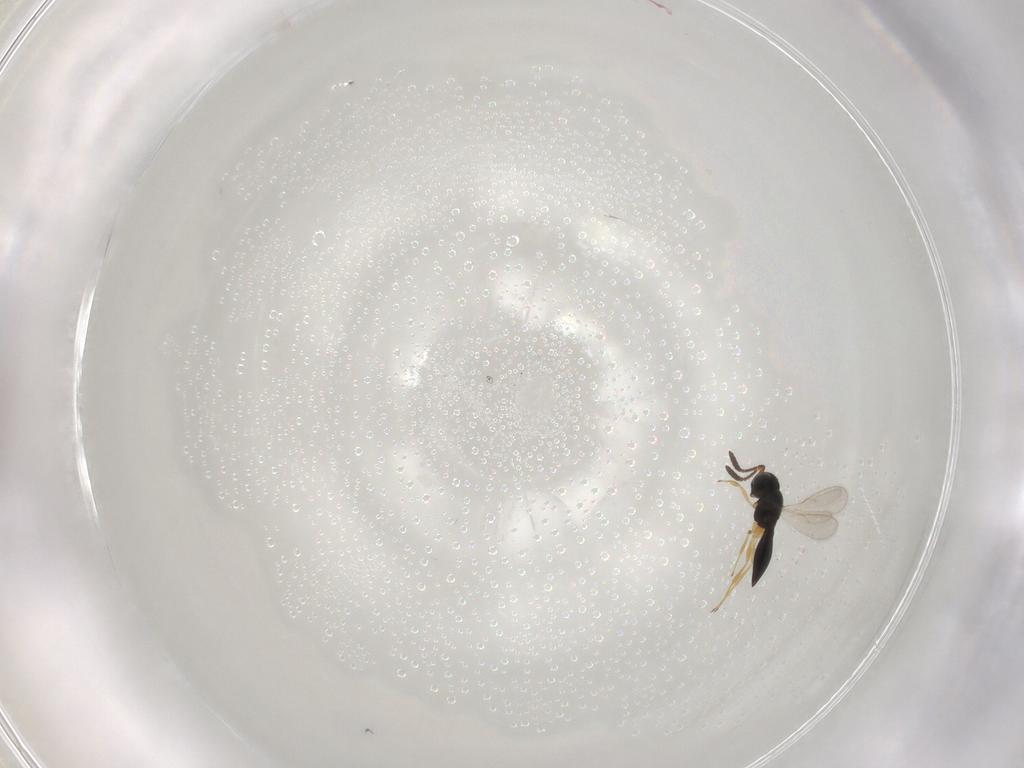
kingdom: Animalia
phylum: Arthropoda
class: Insecta
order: Hymenoptera
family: Scelionidae
